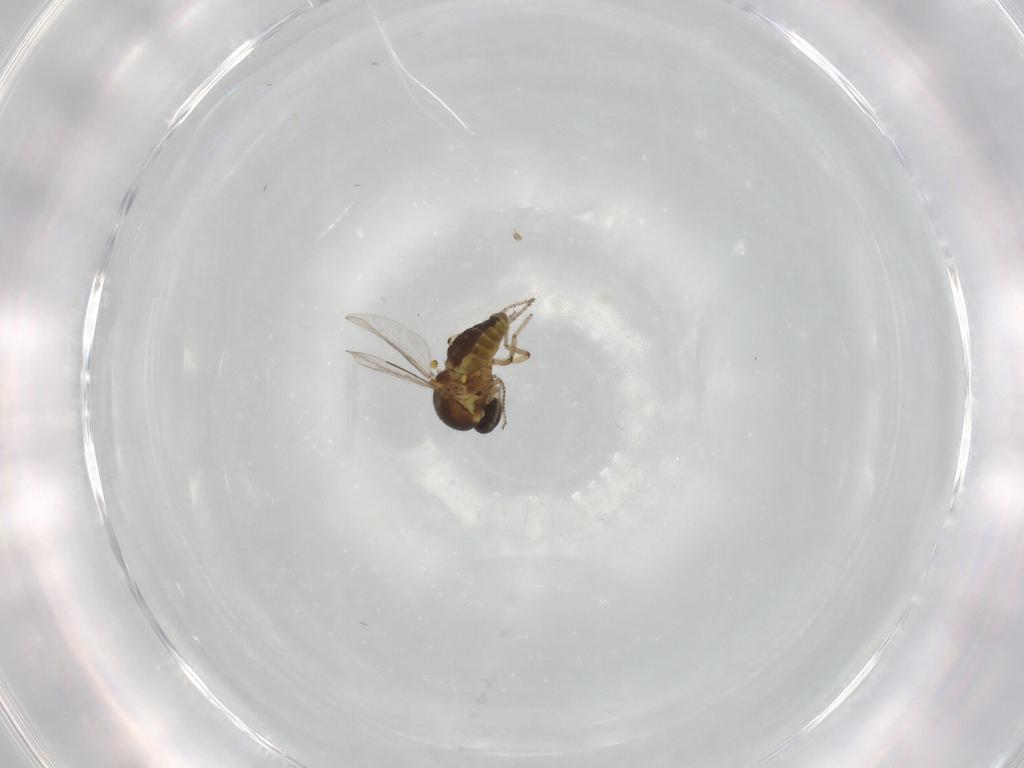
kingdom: Animalia
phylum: Arthropoda
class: Insecta
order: Diptera
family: Ceratopogonidae
